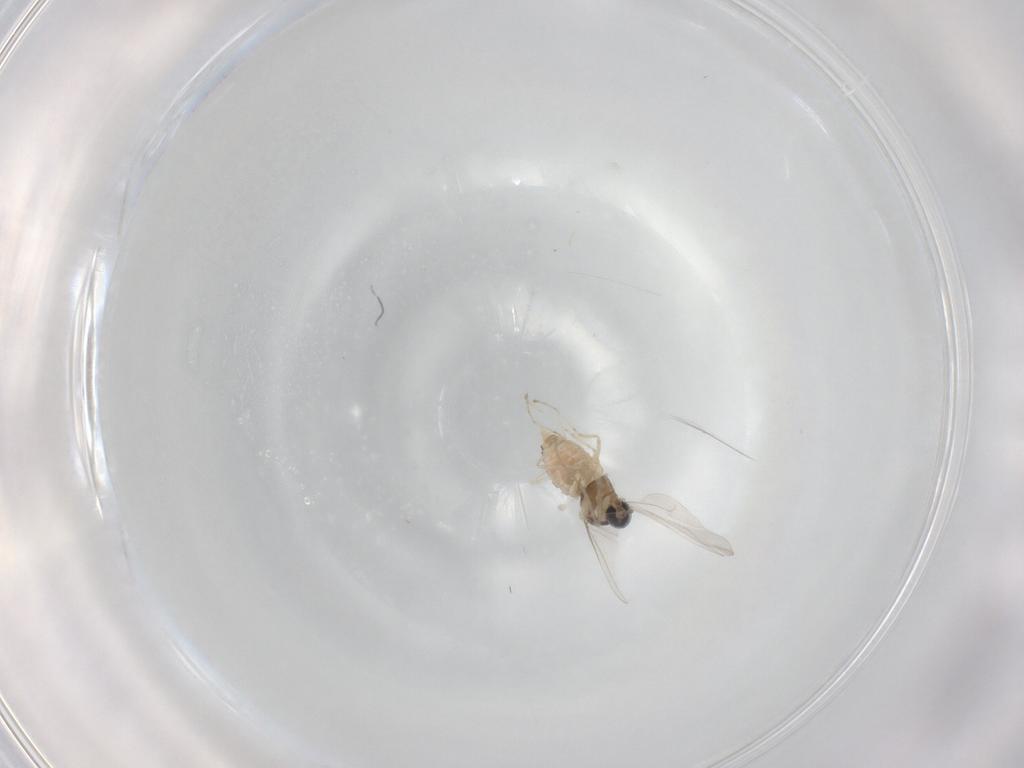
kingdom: Animalia
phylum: Arthropoda
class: Insecta
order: Diptera
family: Cecidomyiidae
